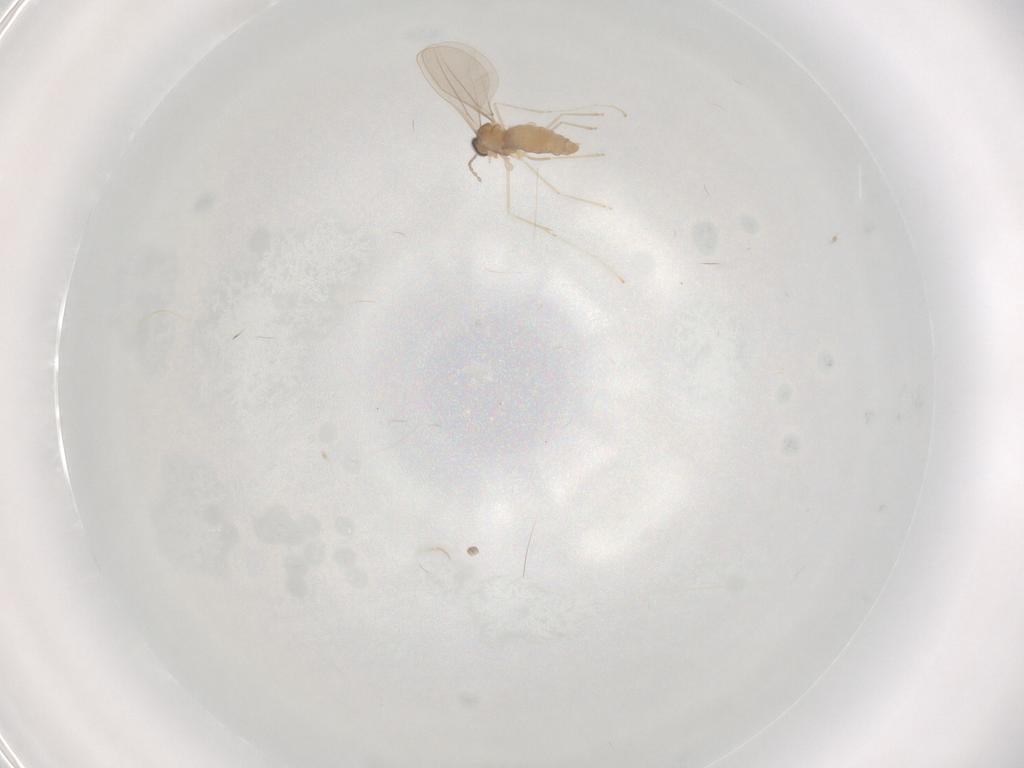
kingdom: Animalia
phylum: Arthropoda
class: Insecta
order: Diptera
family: Cecidomyiidae
